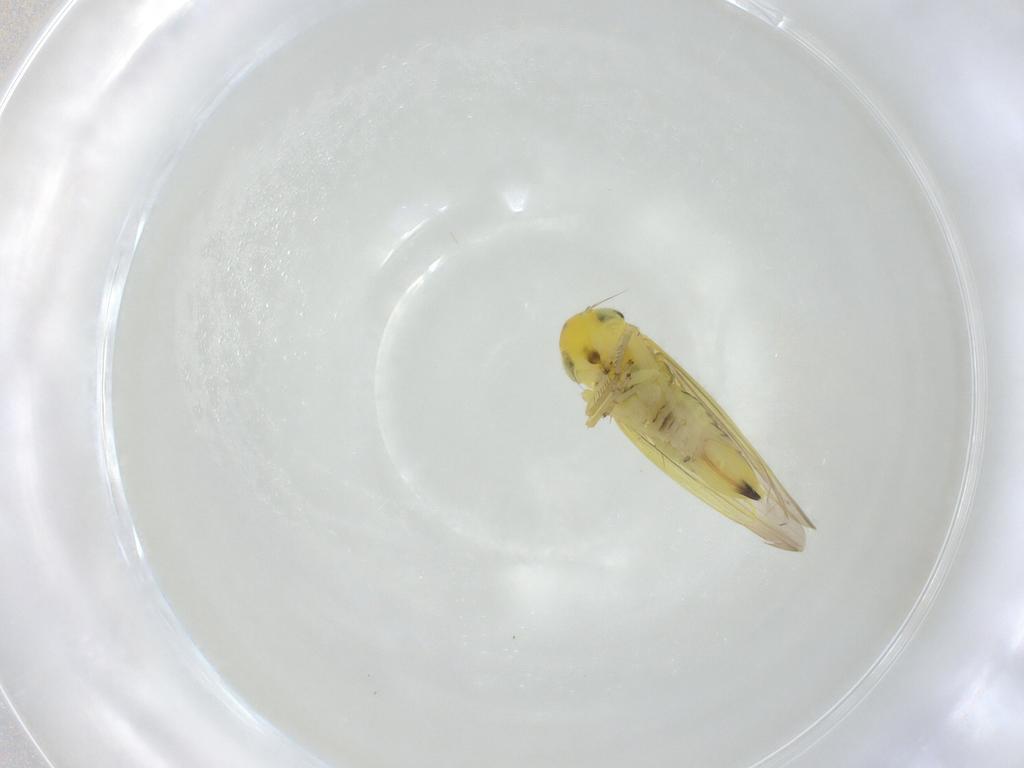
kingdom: Animalia
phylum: Arthropoda
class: Insecta
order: Hemiptera
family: Cicadellidae
